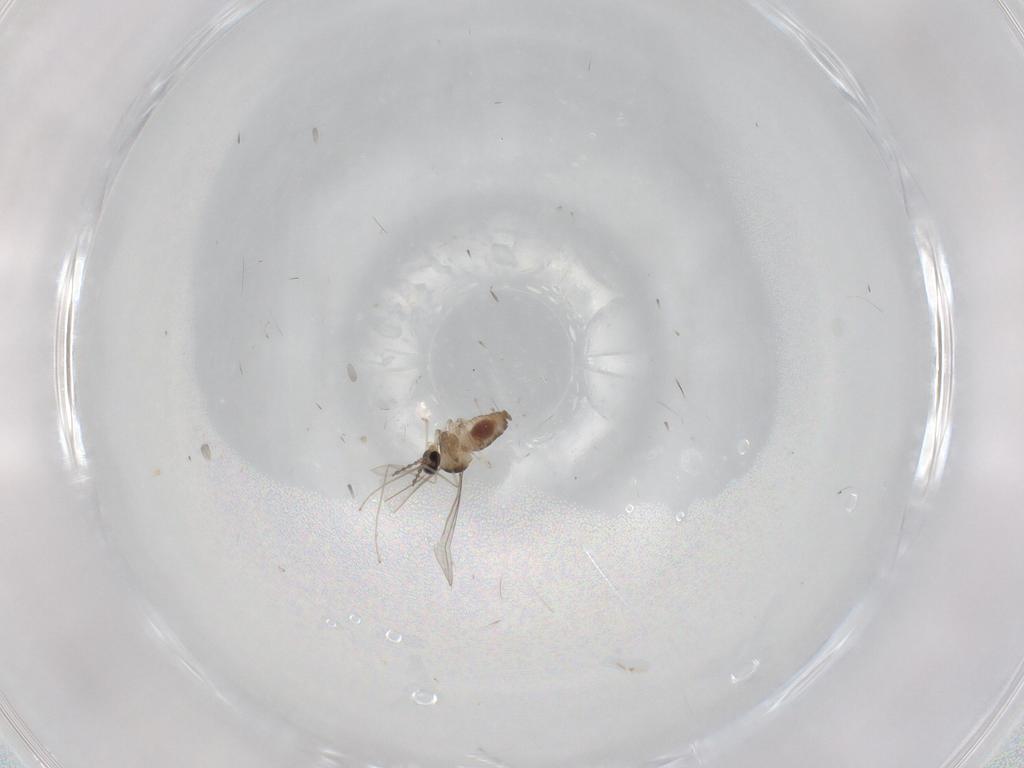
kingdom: Animalia
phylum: Arthropoda
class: Insecta
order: Diptera
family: Cecidomyiidae
